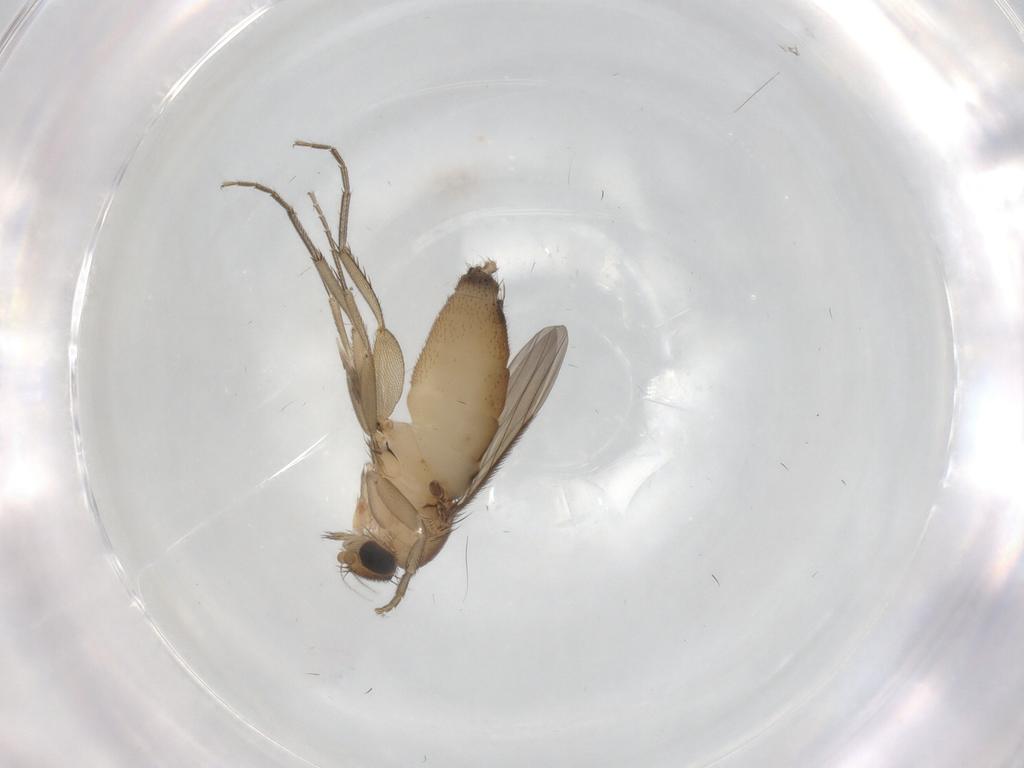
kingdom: Animalia
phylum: Arthropoda
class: Insecta
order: Diptera
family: Phoridae
